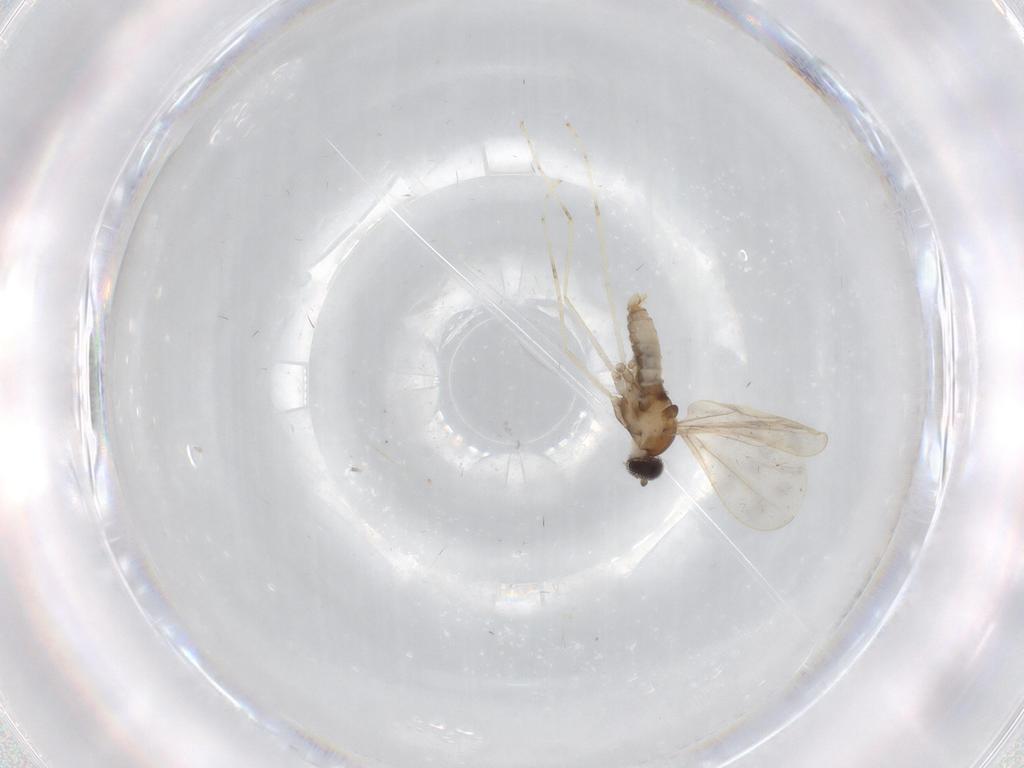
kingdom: Animalia
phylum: Arthropoda
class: Insecta
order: Diptera
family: Cecidomyiidae
